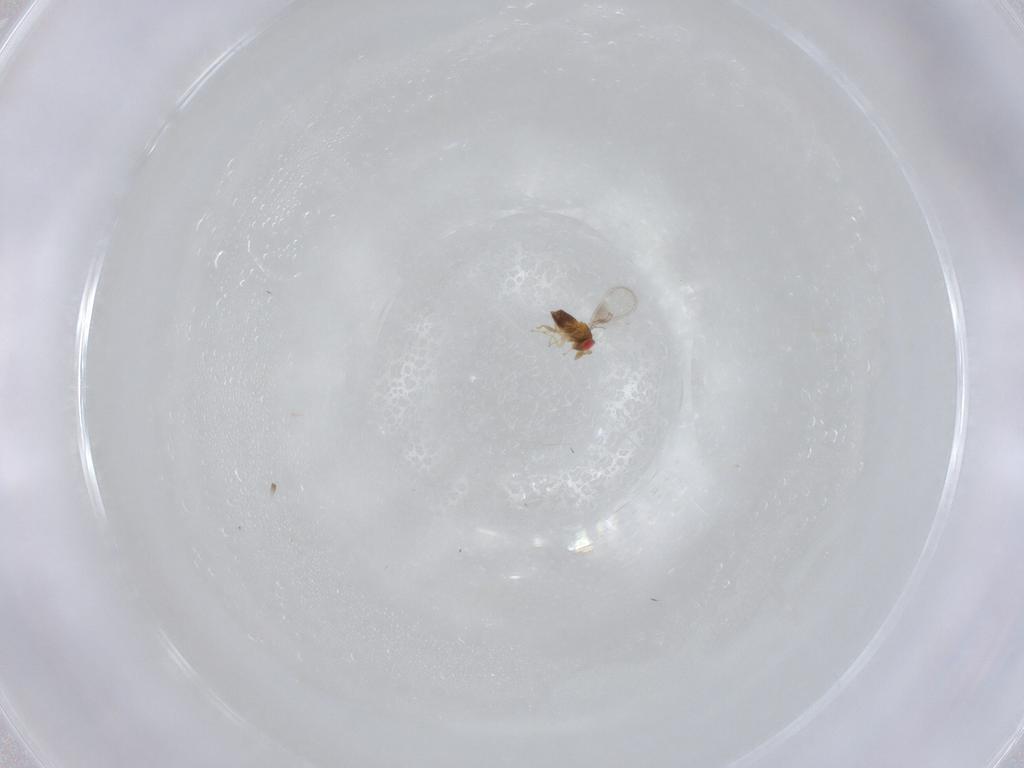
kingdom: Animalia
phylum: Arthropoda
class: Insecta
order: Hymenoptera
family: Trichogrammatidae
